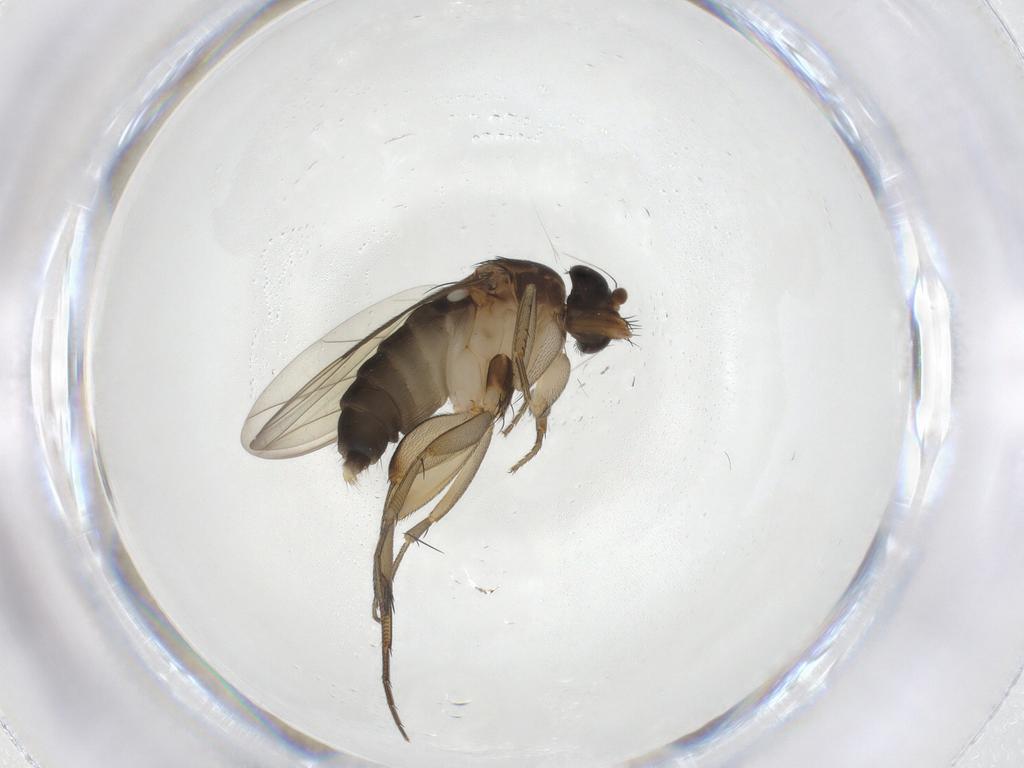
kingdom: Animalia
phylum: Arthropoda
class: Insecta
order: Diptera
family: Phoridae
